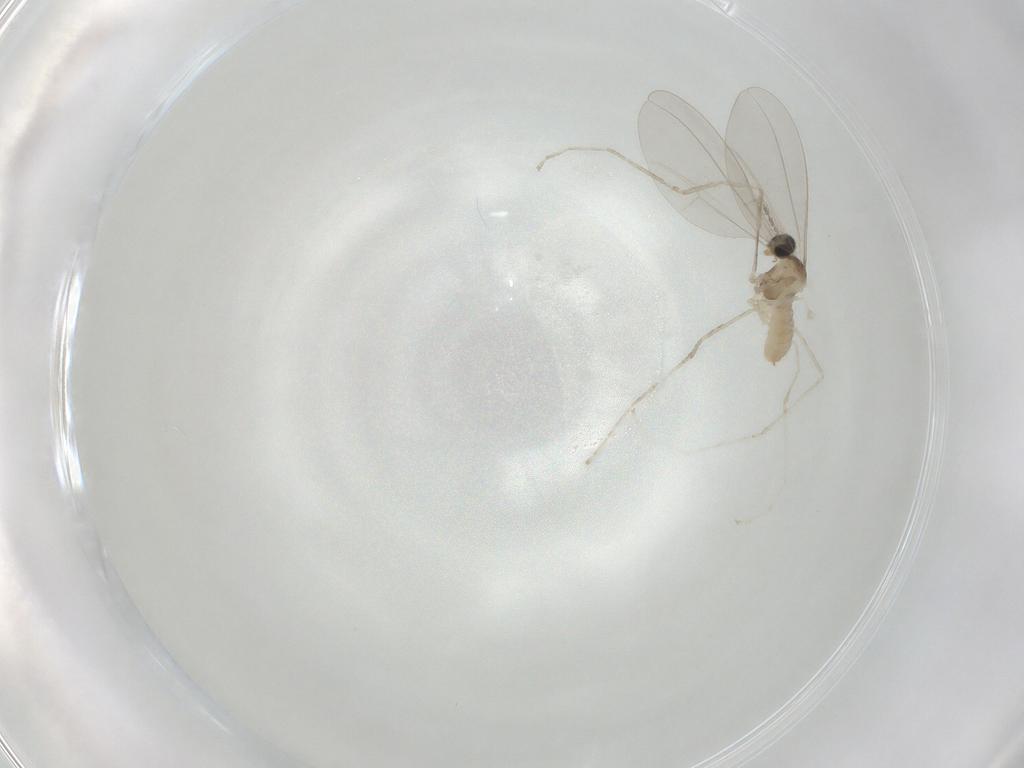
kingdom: Animalia
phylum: Arthropoda
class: Insecta
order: Diptera
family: Cecidomyiidae
